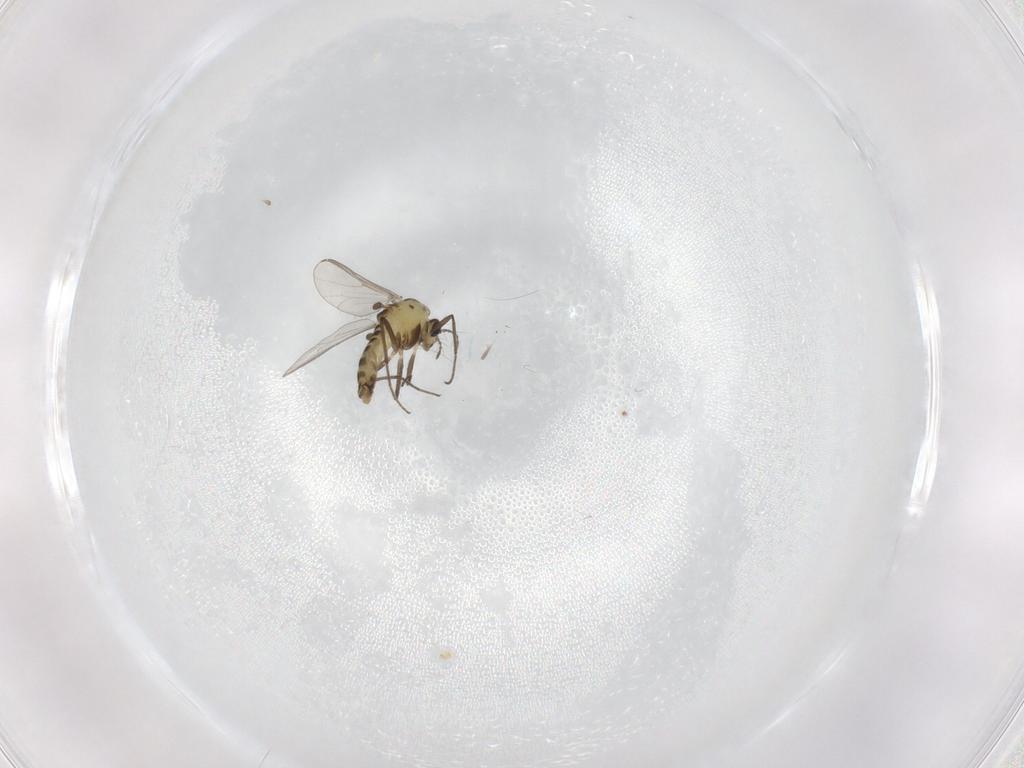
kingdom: Animalia
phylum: Arthropoda
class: Insecta
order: Diptera
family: Chironomidae
